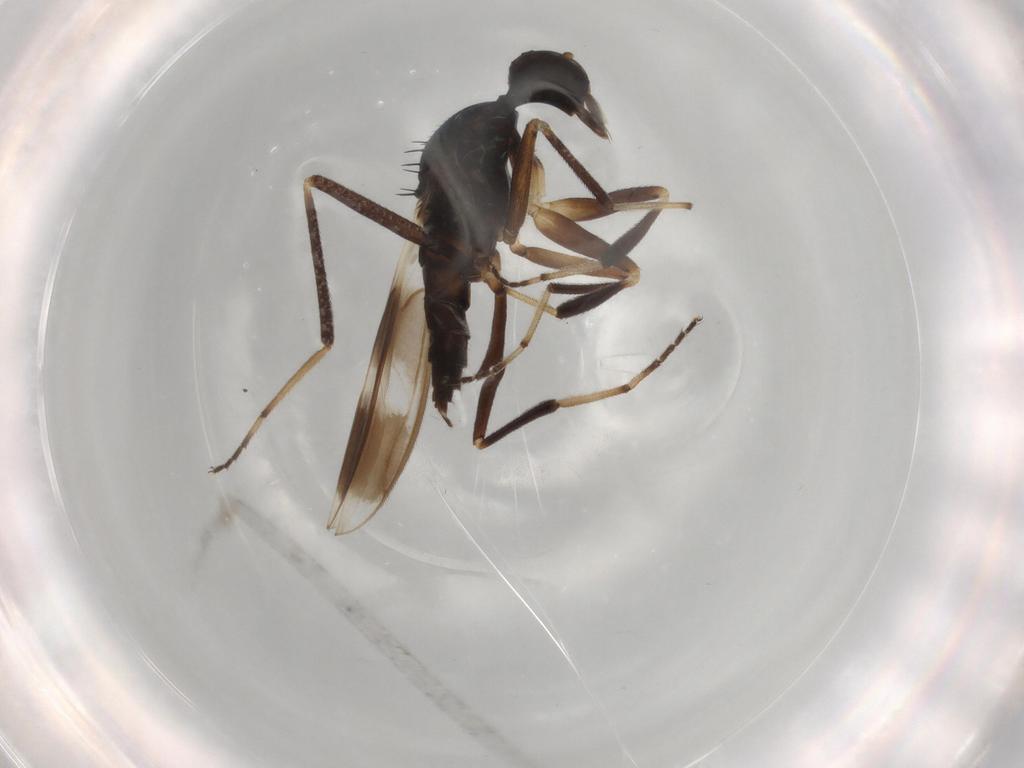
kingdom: Animalia
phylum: Arthropoda
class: Insecta
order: Diptera
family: Hybotidae
